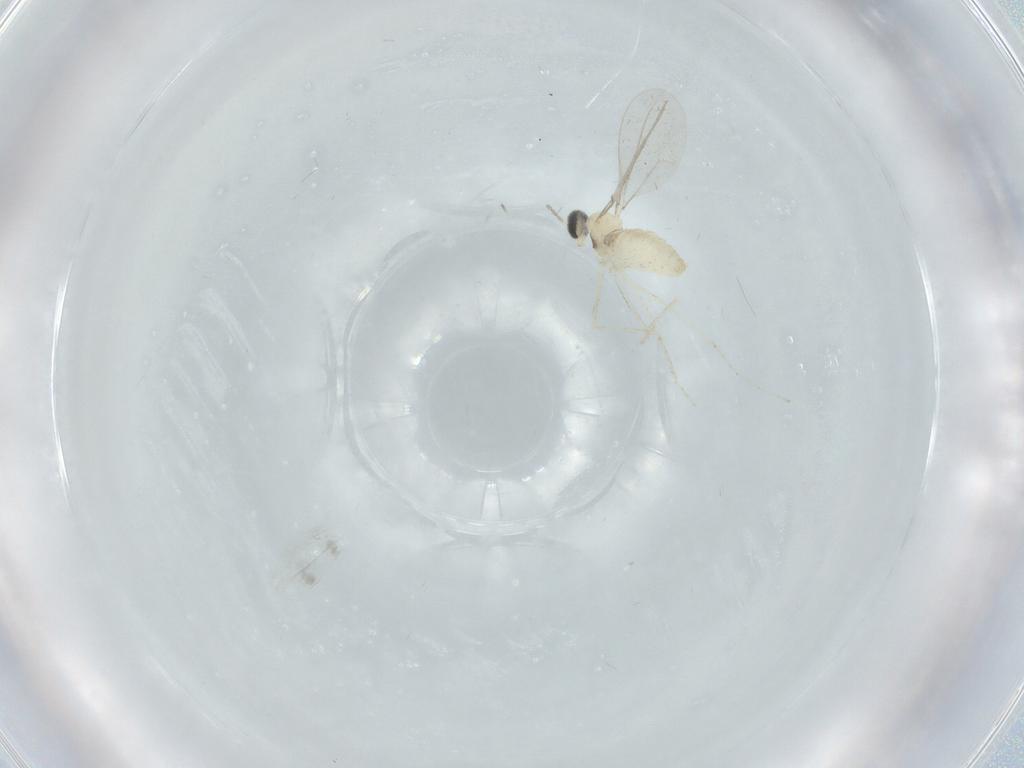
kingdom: Animalia
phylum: Arthropoda
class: Insecta
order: Diptera
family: Cecidomyiidae
